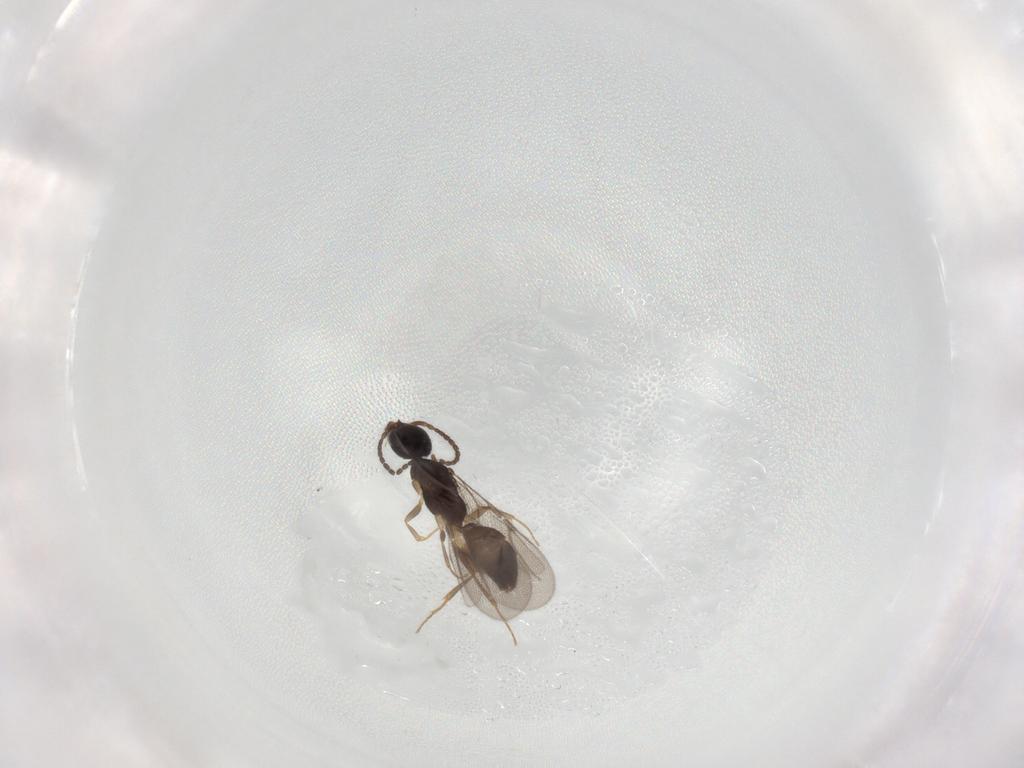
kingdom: Animalia
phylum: Arthropoda
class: Insecta
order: Hymenoptera
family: Bethylidae
